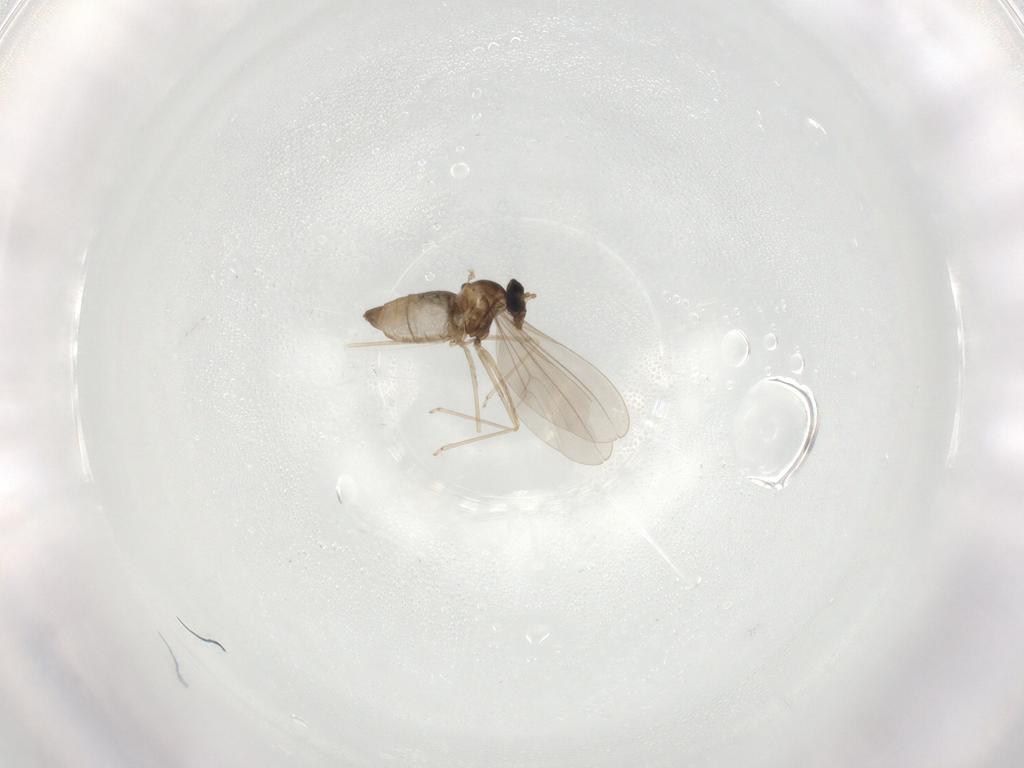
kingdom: Animalia
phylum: Arthropoda
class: Insecta
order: Diptera
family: Cecidomyiidae
